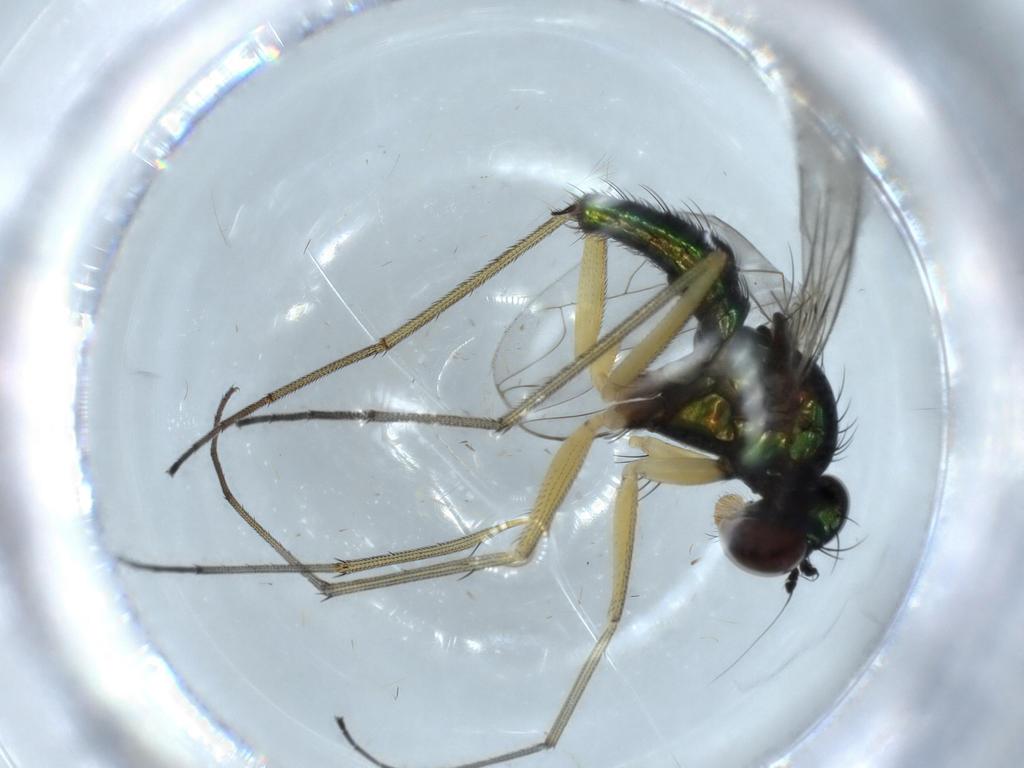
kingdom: Animalia
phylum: Arthropoda
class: Insecta
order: Diptera
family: Dolichopodidae
